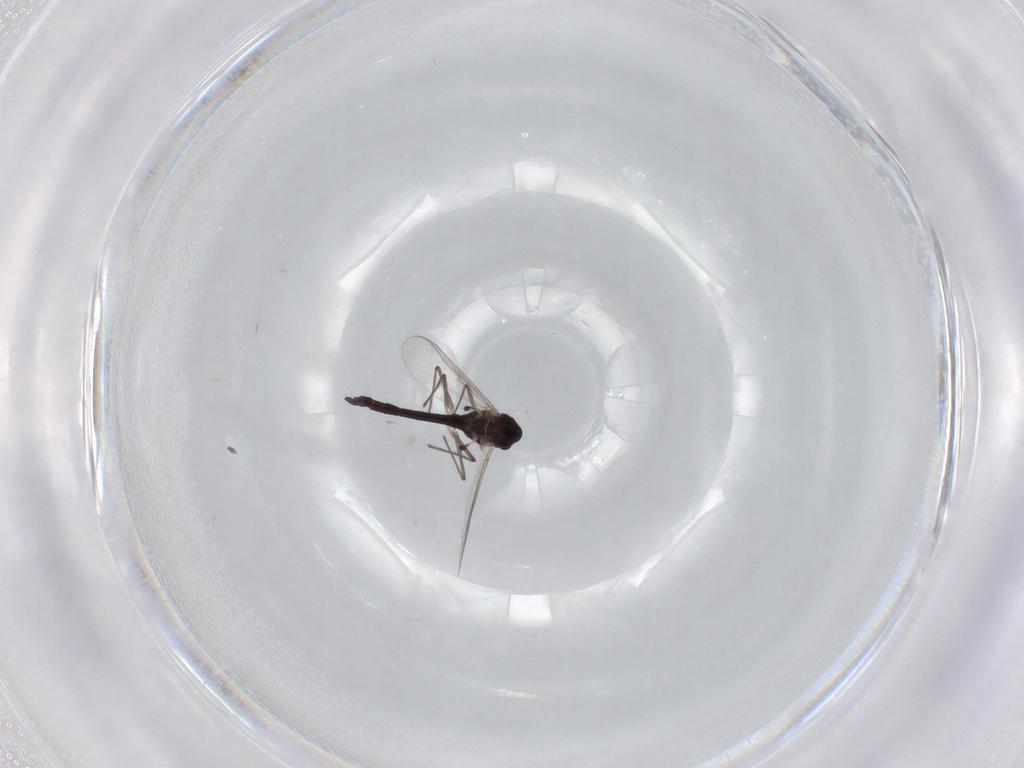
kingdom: Animalia
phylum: Arthropoda
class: Insecta
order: Diptera
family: Chironomidae
